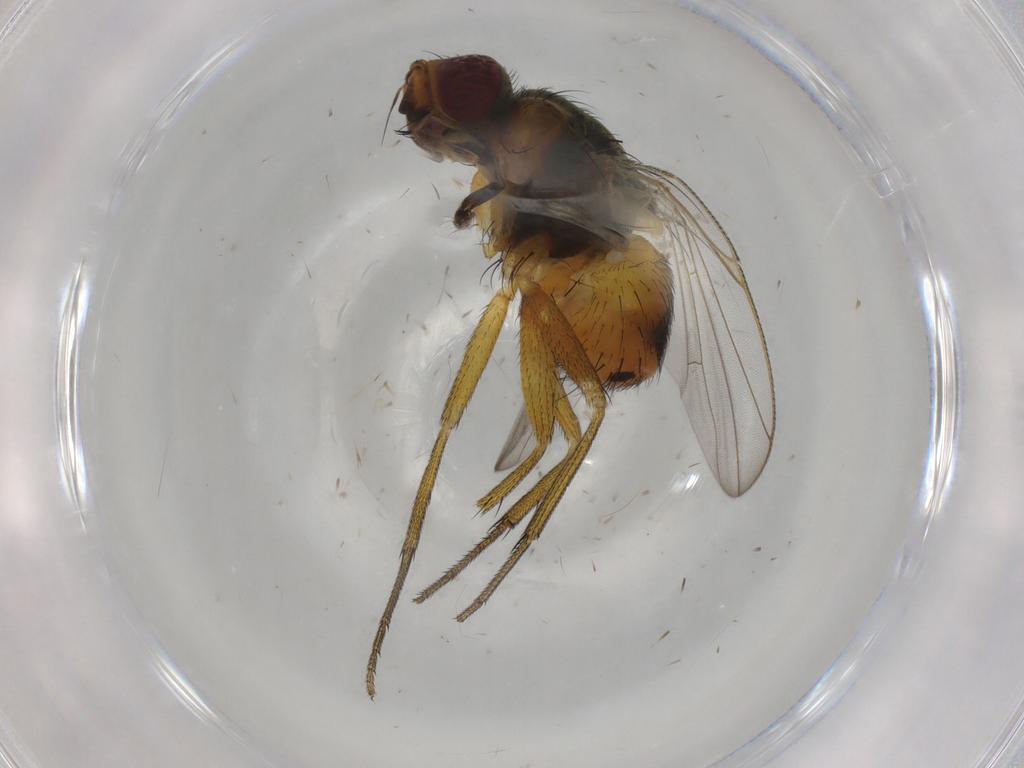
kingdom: Animalia
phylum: Arthropoda
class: Insecta
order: Diptera
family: Muscidae
